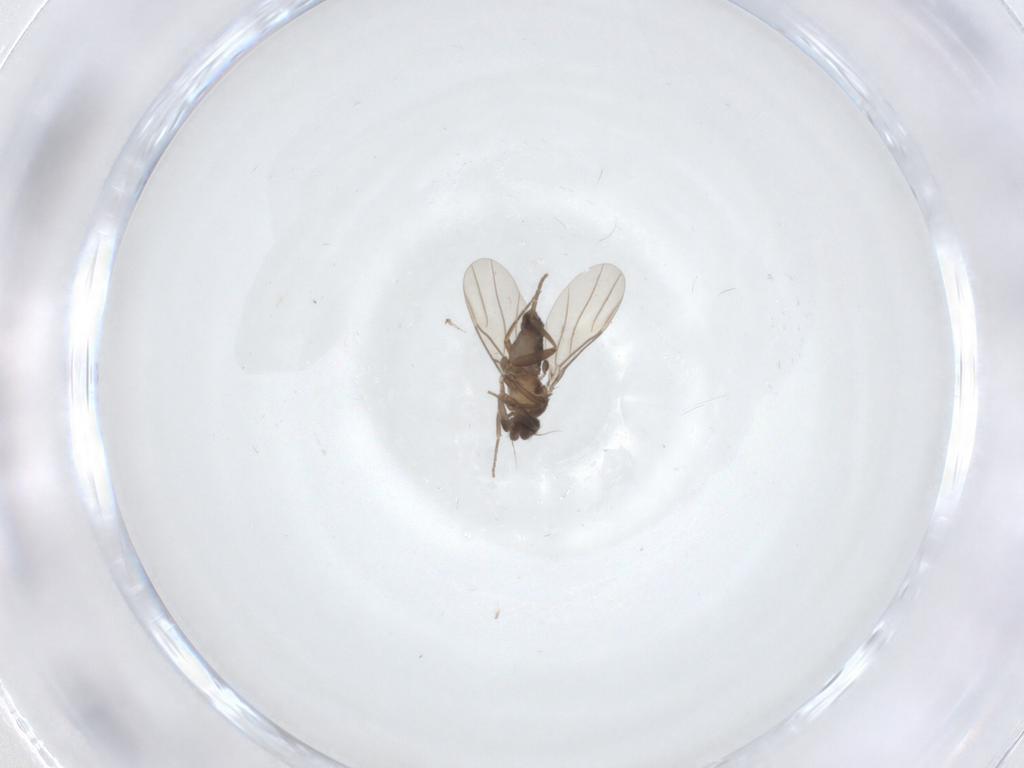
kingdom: Animalia
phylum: Arthropoda
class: Insecta
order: Diptera
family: Phoridae
